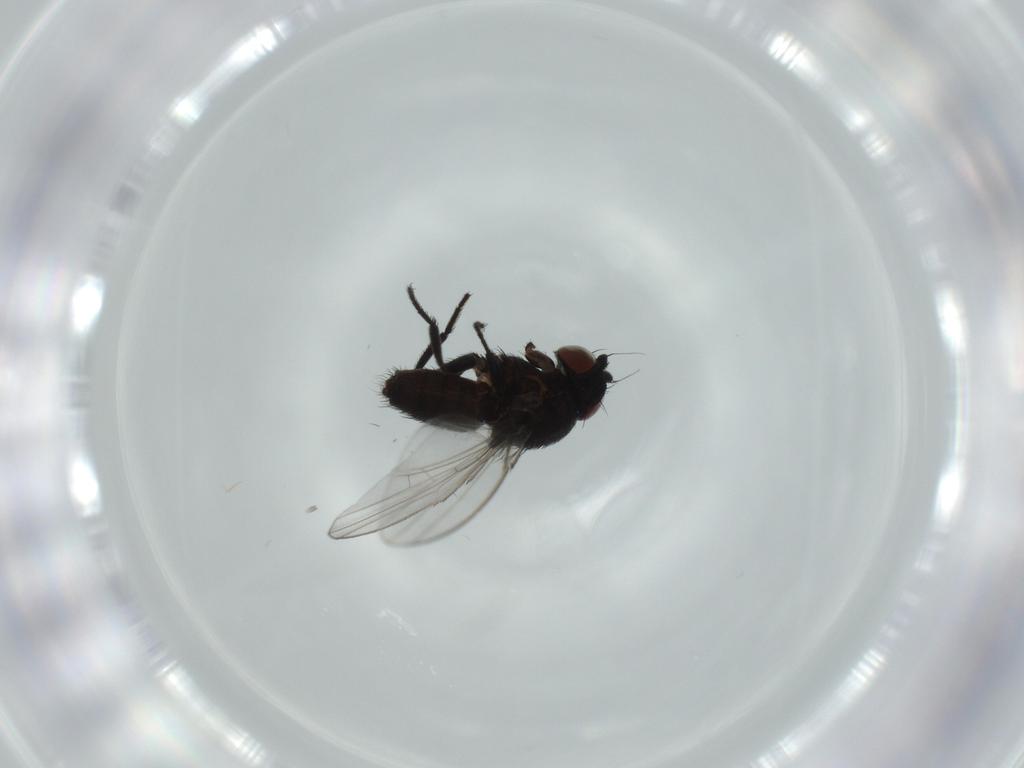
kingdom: Animalia
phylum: Arthropoda
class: Insecta
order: Diptera
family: Milichiidae
